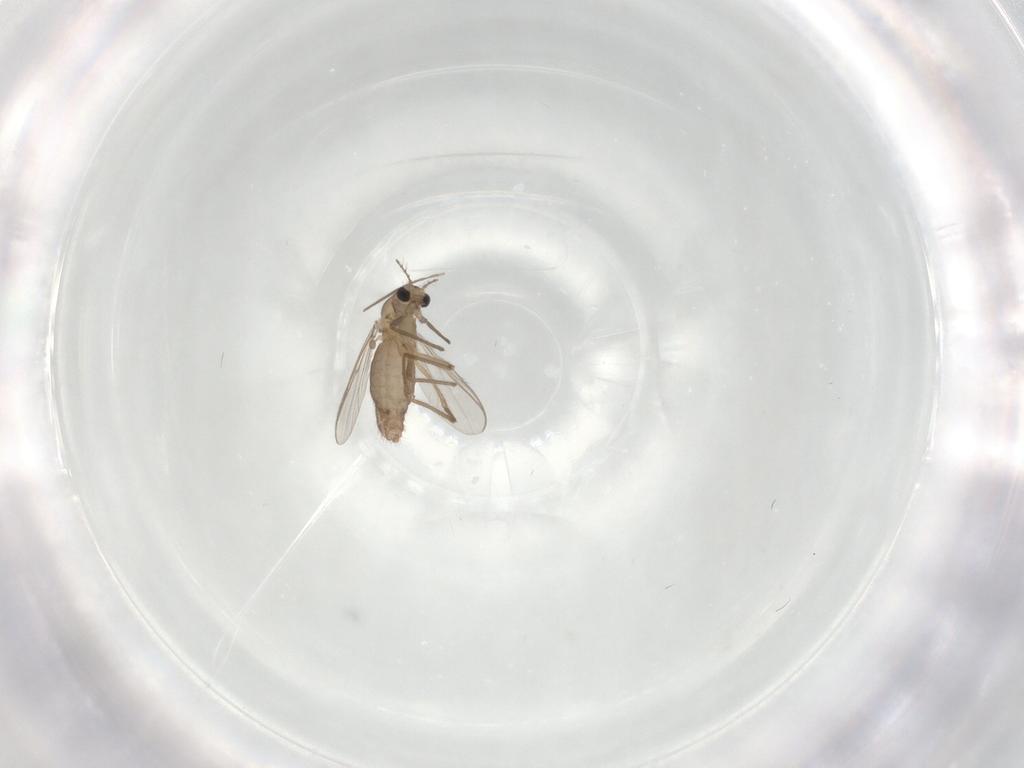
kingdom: Animalia
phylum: Arthropoda
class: Insecta
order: Diptera
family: Chironomidae
